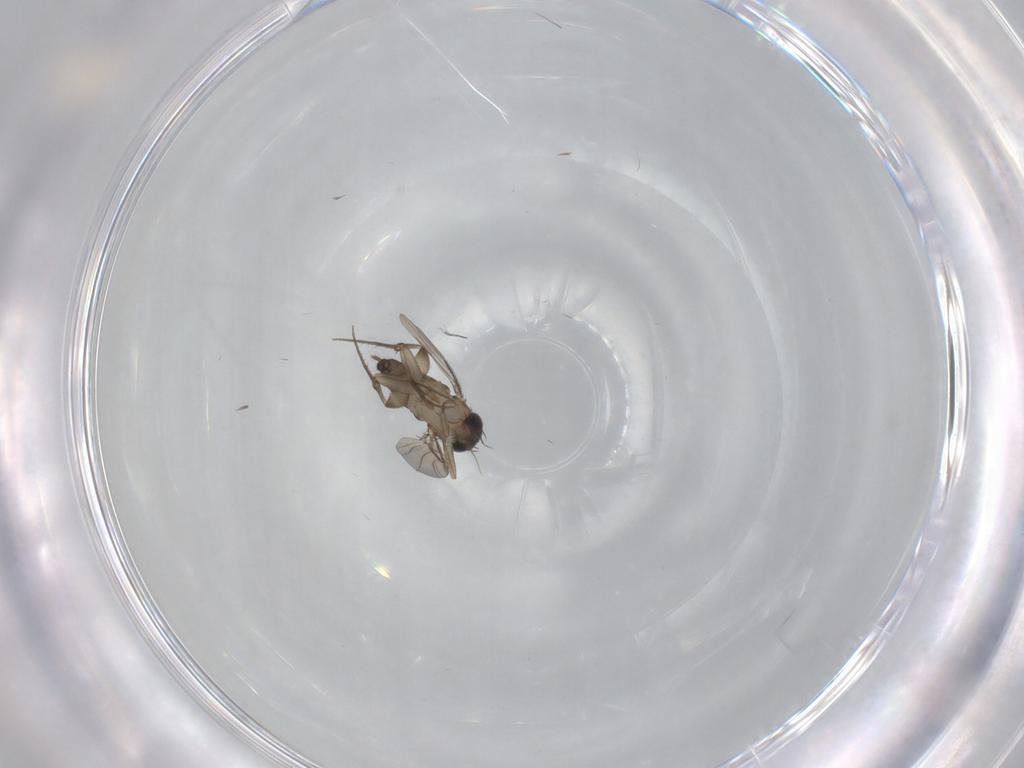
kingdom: Animalia
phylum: Arthropoda
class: Insecta
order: Diptera
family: Phoridae
